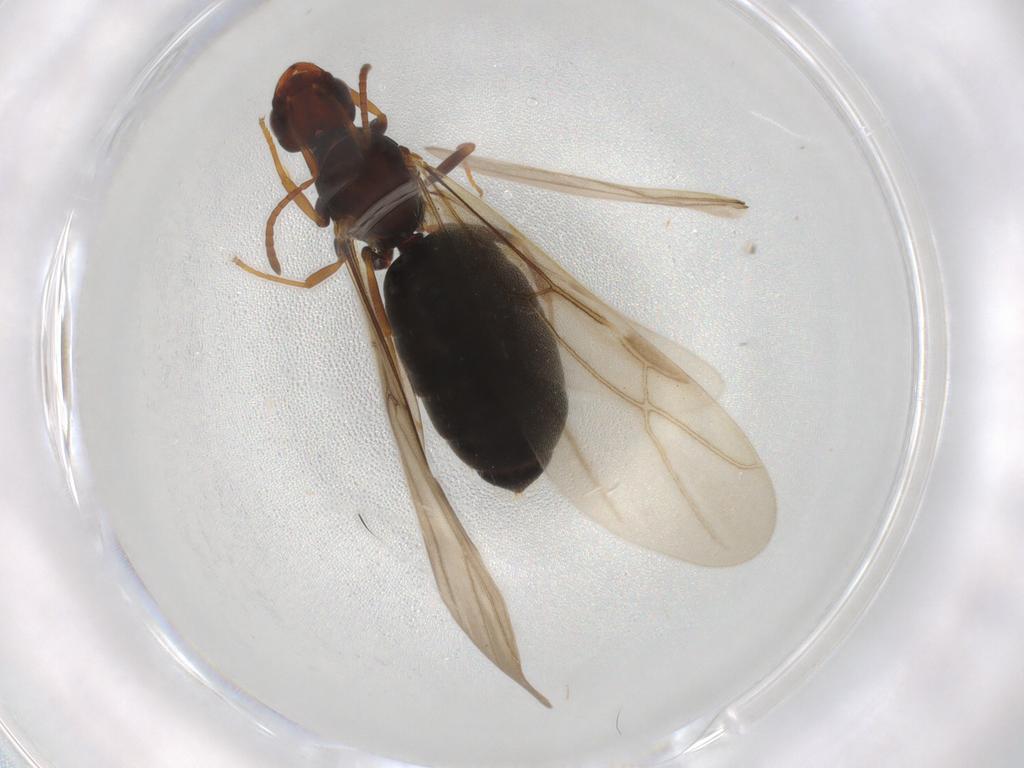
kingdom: Animalia
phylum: Arthropoda
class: Insecta
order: Hymenoptera
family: Formicidae
